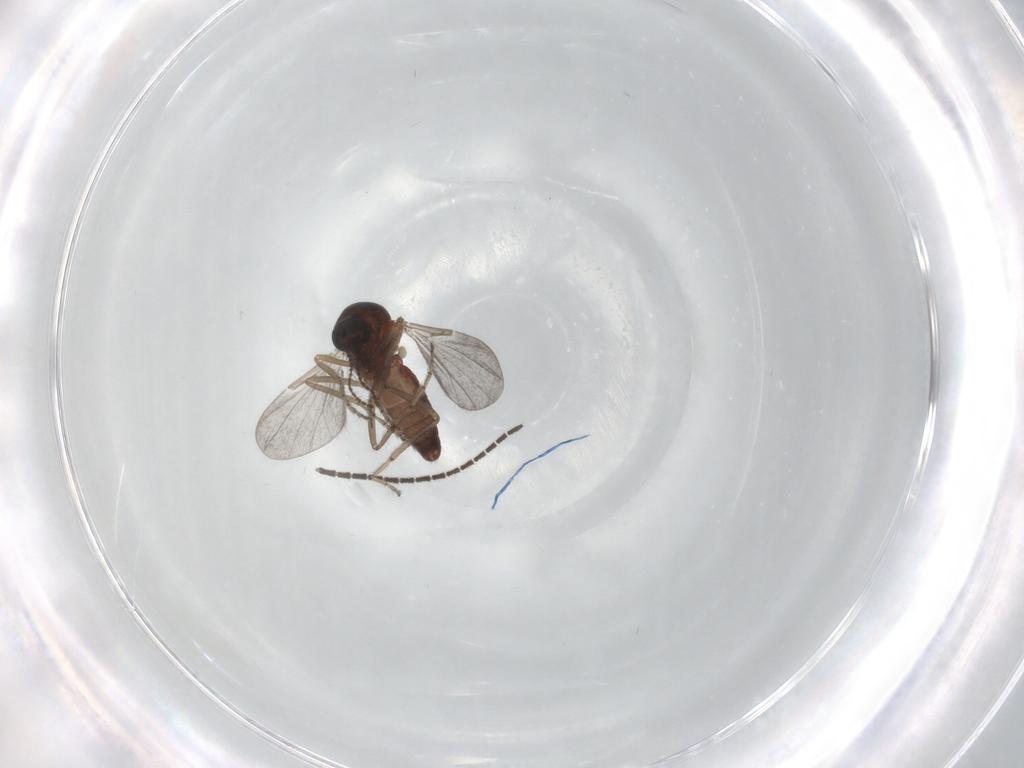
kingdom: Animalia
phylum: Arthropoda
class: Insecta
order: Diptera
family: Ceratopogonidae
